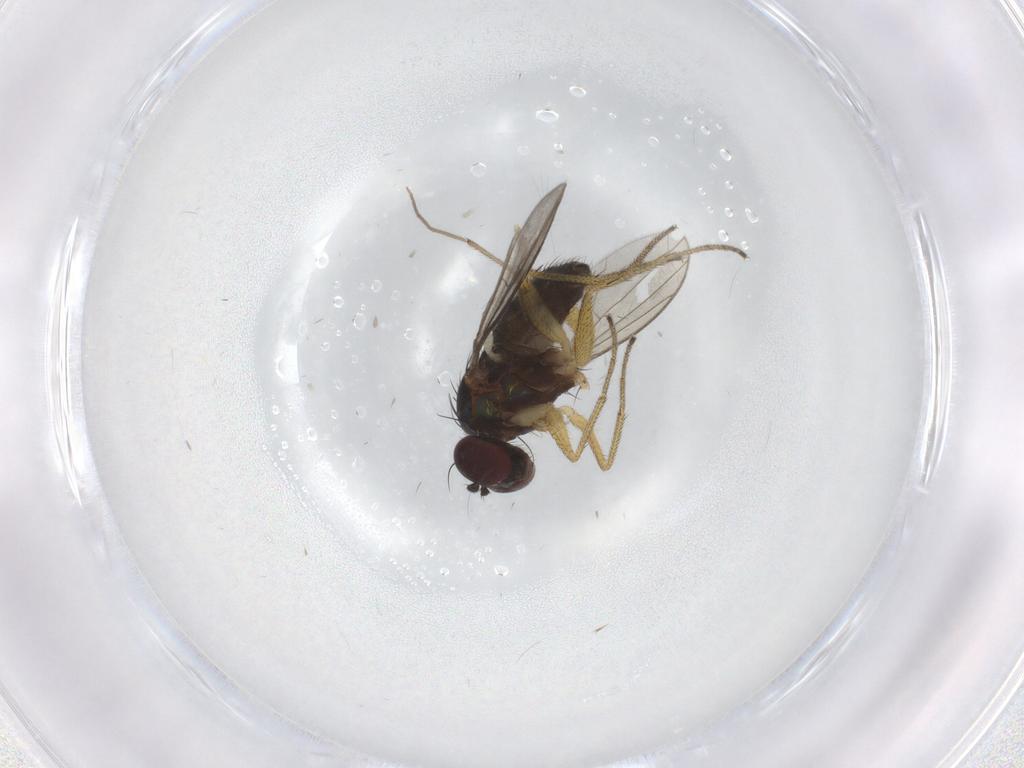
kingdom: Animalia
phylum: Arthropoda
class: Insecta
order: Diptera
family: Dolichopodidae
